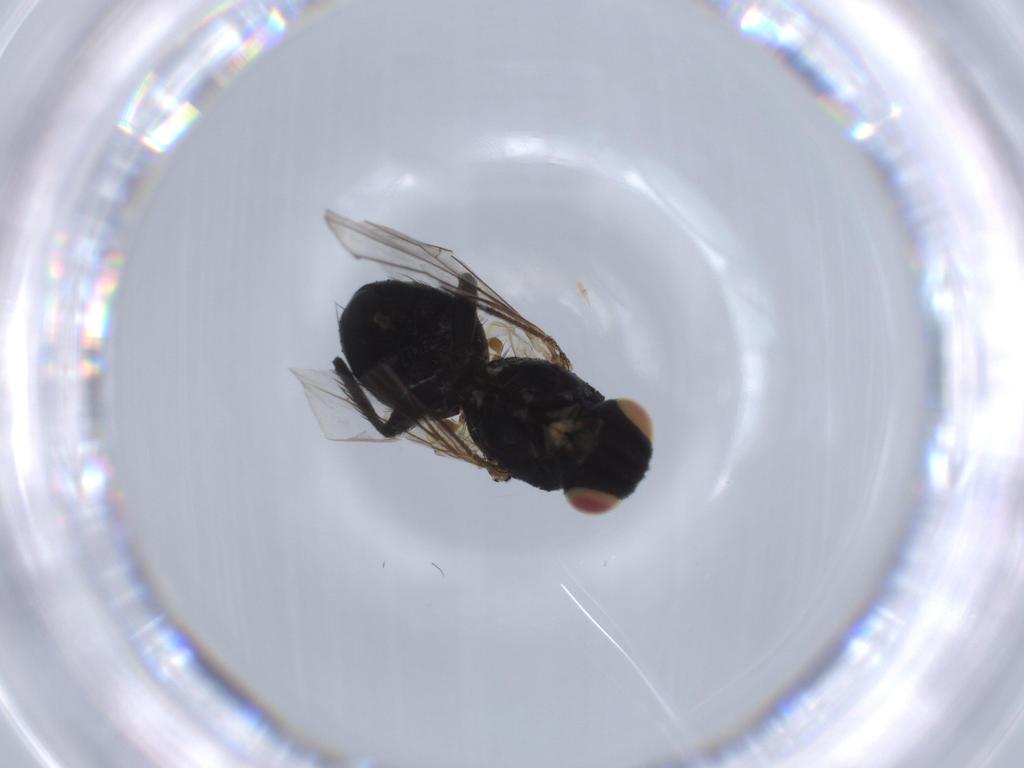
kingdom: Animalia
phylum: Arthropoda
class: Insecta
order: Diptera
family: Tachinidae
